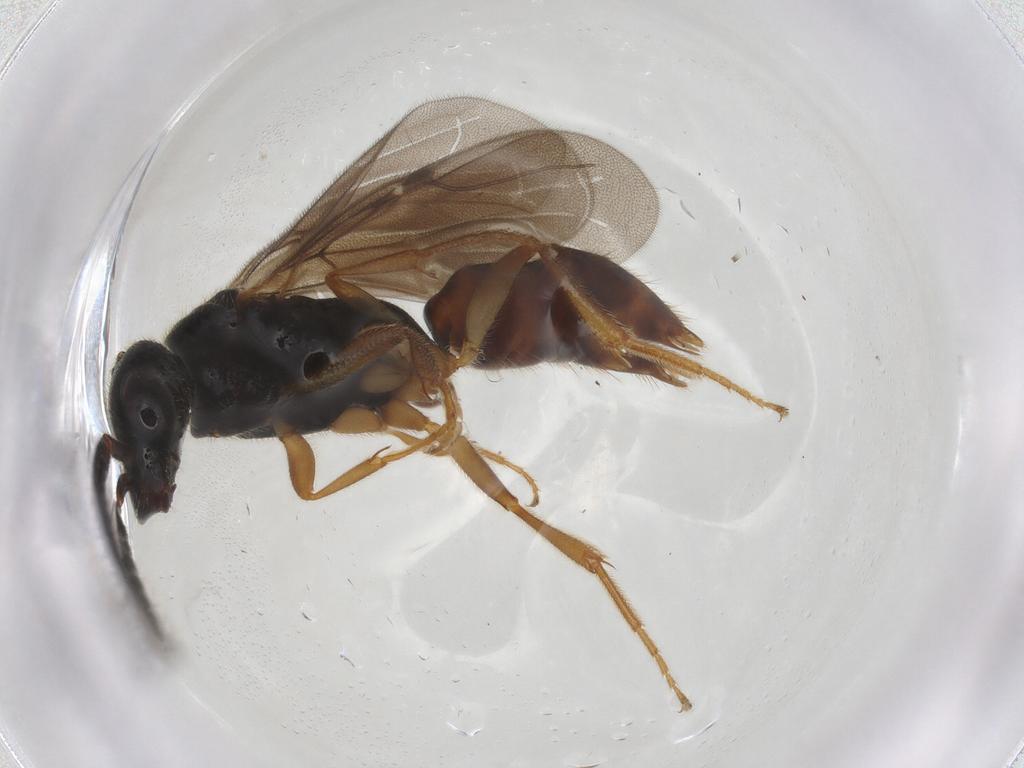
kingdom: Animalia
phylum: Arthropoda
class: Insecta
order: Hymenoptera
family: Bethylidae
